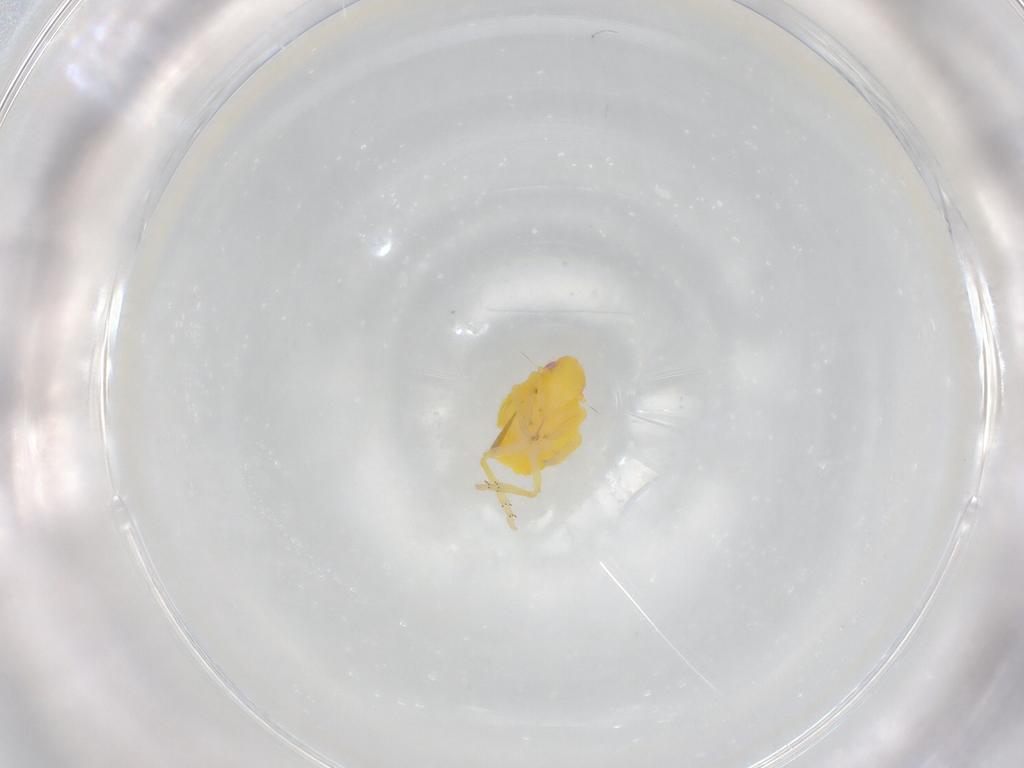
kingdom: Animalia
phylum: Arthropoda
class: Insecta
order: Hemiptera
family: Tropiduchidae
